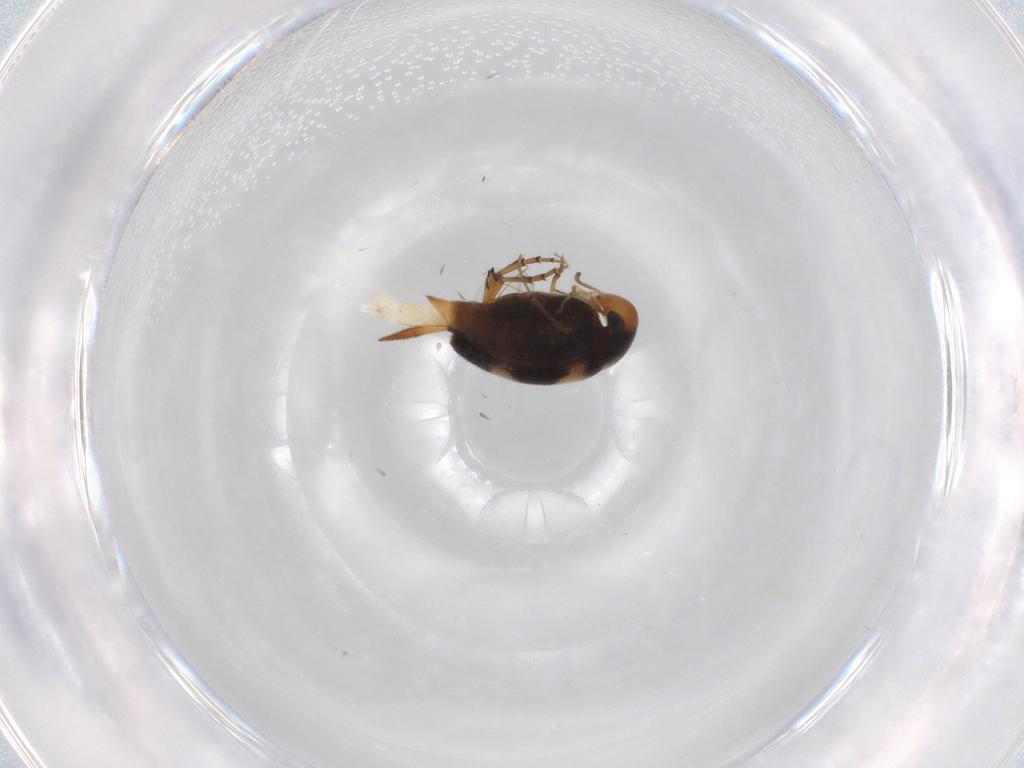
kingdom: Animalia
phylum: Arthropoda
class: Insecta
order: Coleoptera
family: Mordellidae
